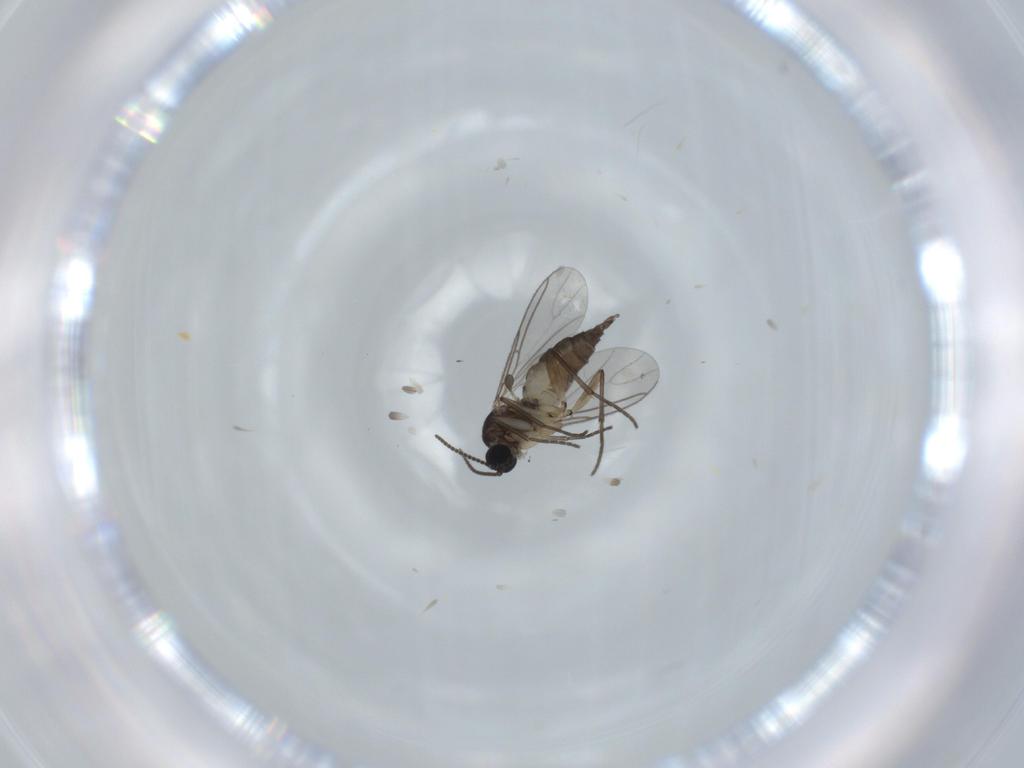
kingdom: Animalia
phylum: Arthropoda
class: Insecta
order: Diptera
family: Sciaridae
